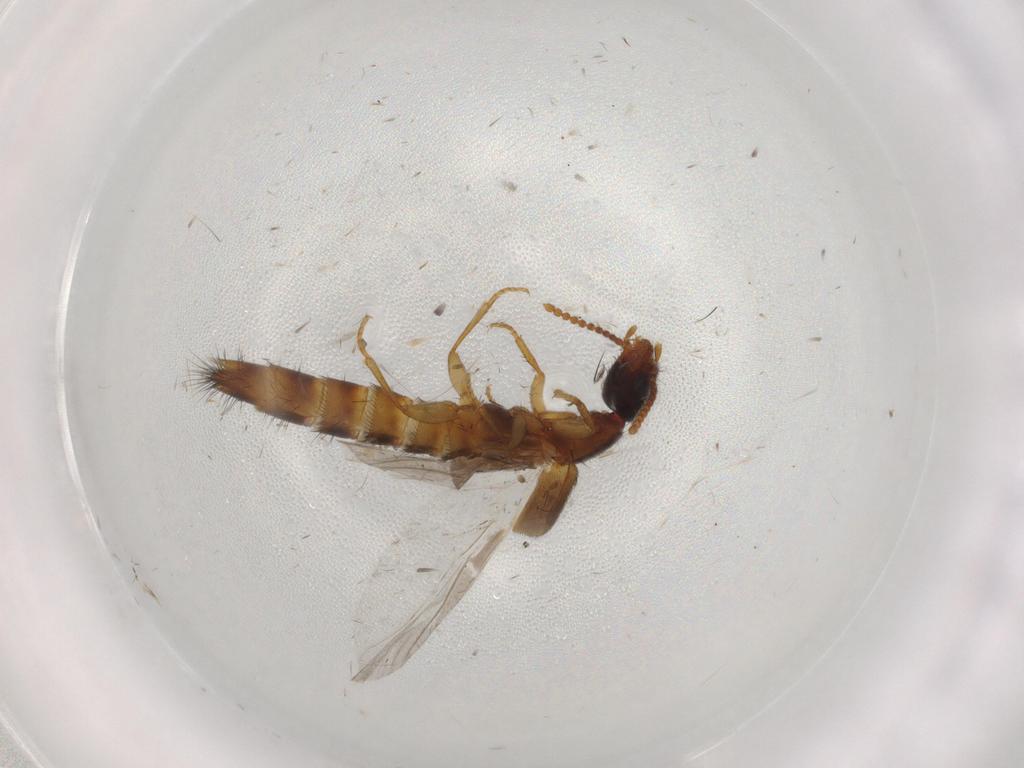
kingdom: Animalia
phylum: Arthropoda
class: Insecta
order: Coleoptera
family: Staphylinidae
